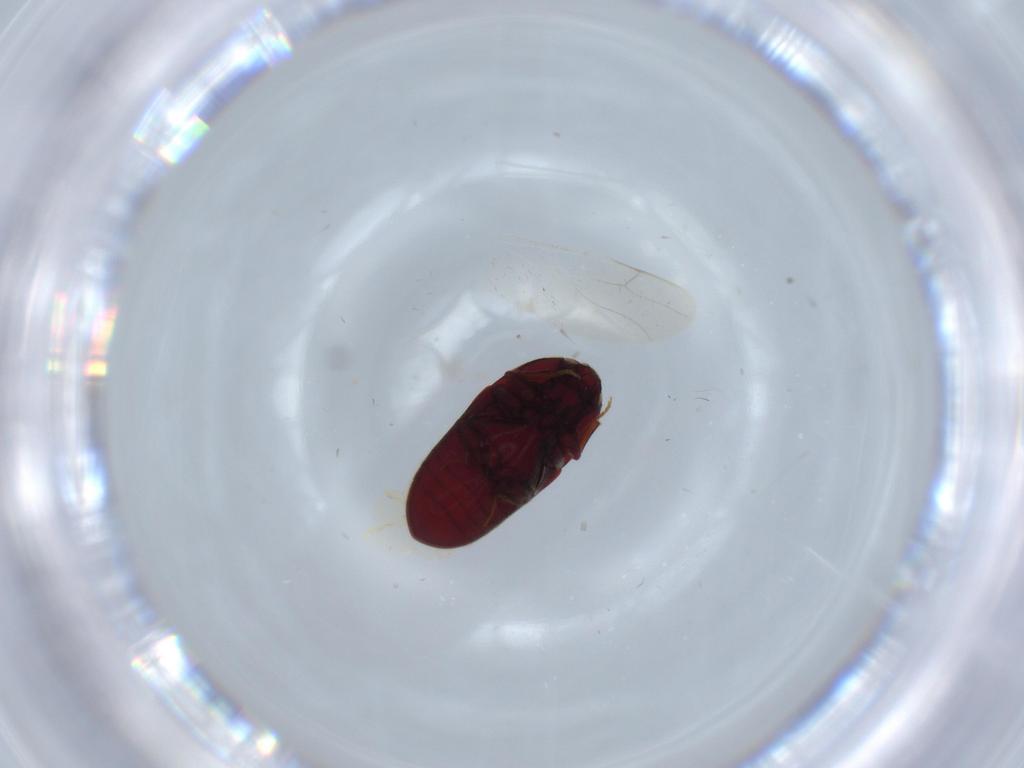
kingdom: Animalia
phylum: Arthropoda
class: Insecta
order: Coleoptera
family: Throscidae
